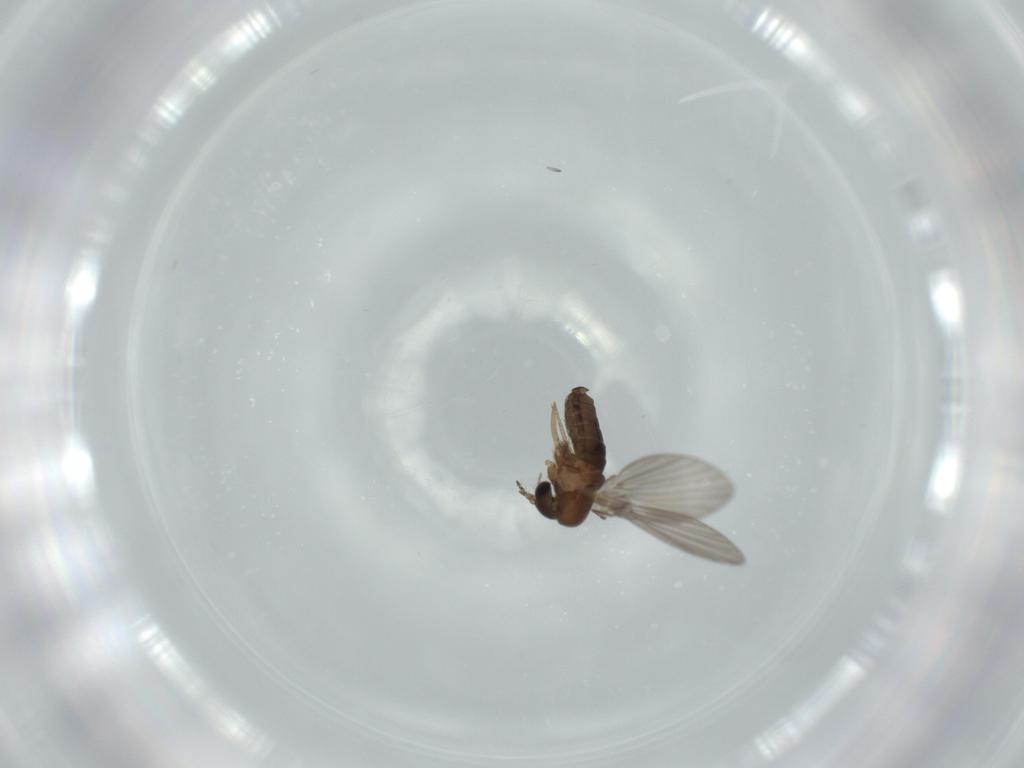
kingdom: Animalia
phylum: Arthropoda
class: Insecta
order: Diptera
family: Psychodidae
